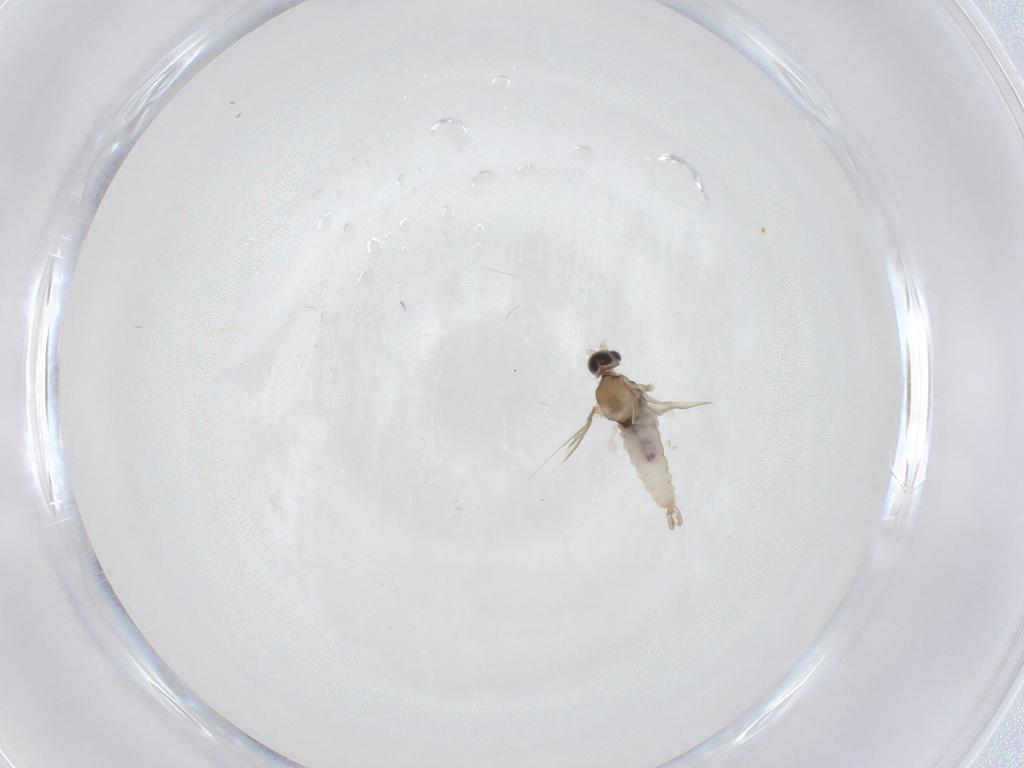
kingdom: Animalia
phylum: Arthropoda
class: Insecta
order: Diptera
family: Cecidomyiidae
